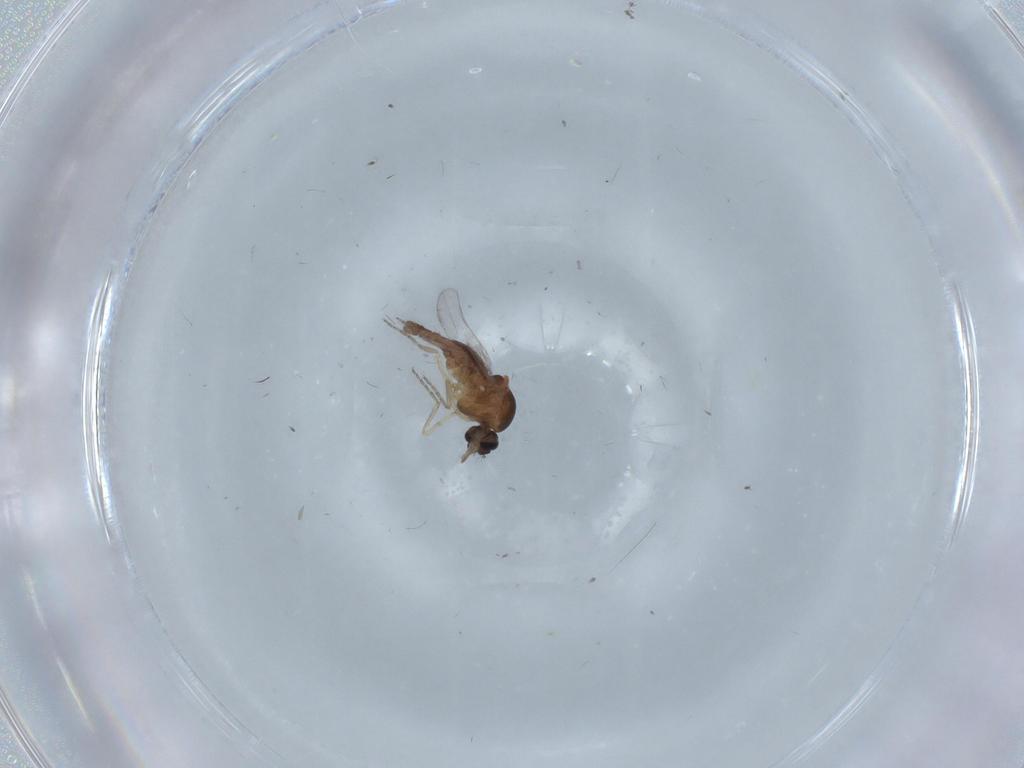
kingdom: Animalia
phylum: Arthropoda
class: Insecta
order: Diptera
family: Ceratopogonidae
